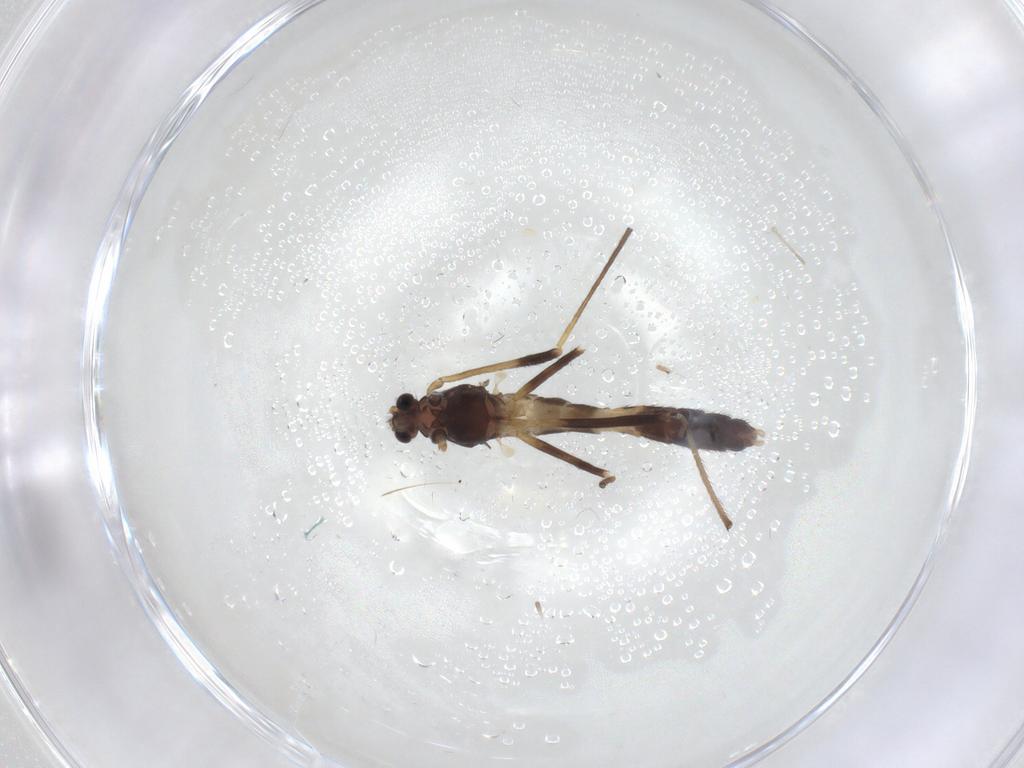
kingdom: Animalia
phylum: Arthropoda
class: Insecta
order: Diptera
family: Chironomidae
